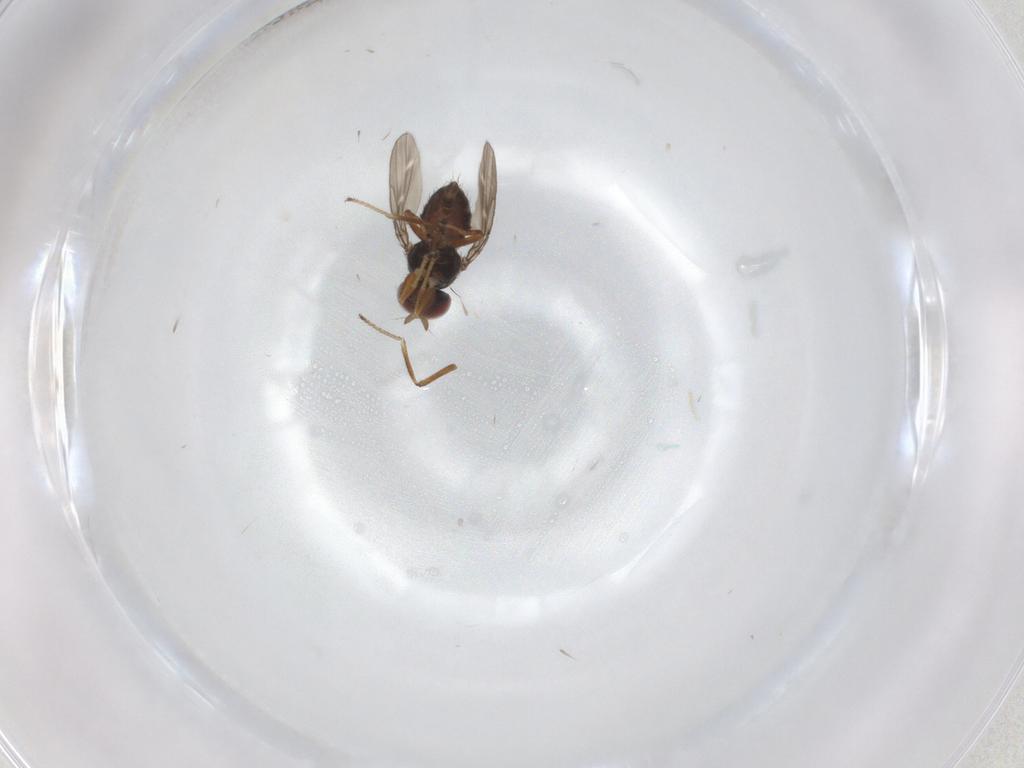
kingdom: Animalia
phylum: Arthropoda
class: Insecta
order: Diptera
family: Ephydridae
